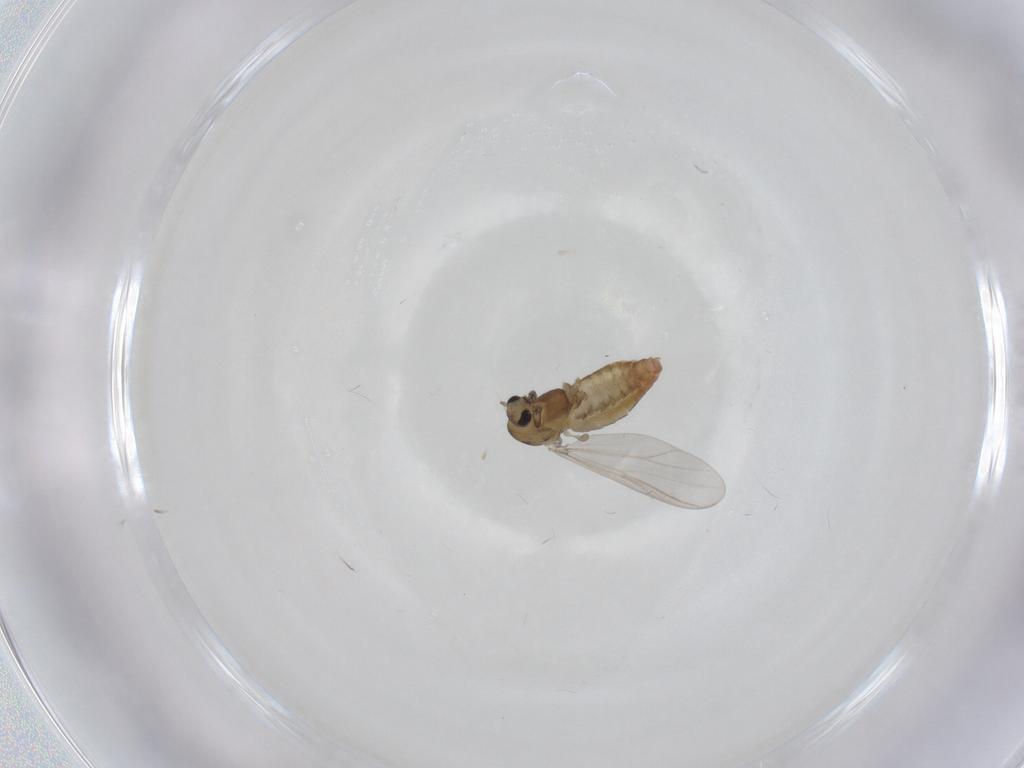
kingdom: Animalia
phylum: Arthropoda
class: Insecta
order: Diptera
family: Chironomidae
